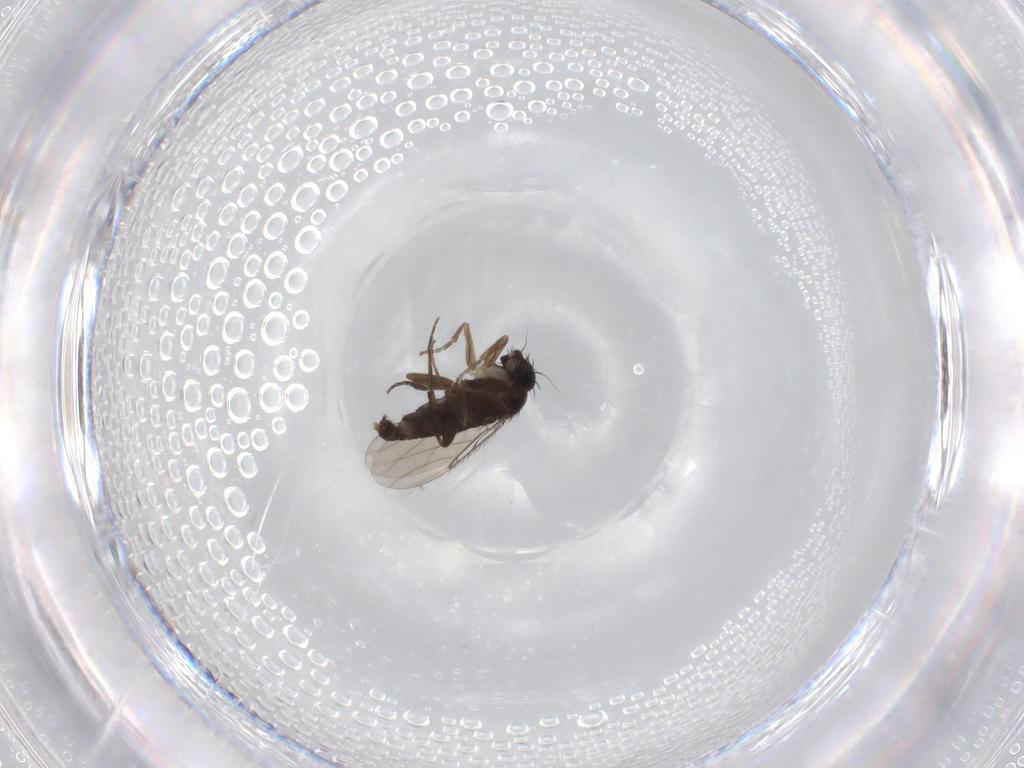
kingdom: Animalia
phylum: Arthropoda
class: Insecta
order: Diptera
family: Phoridae
